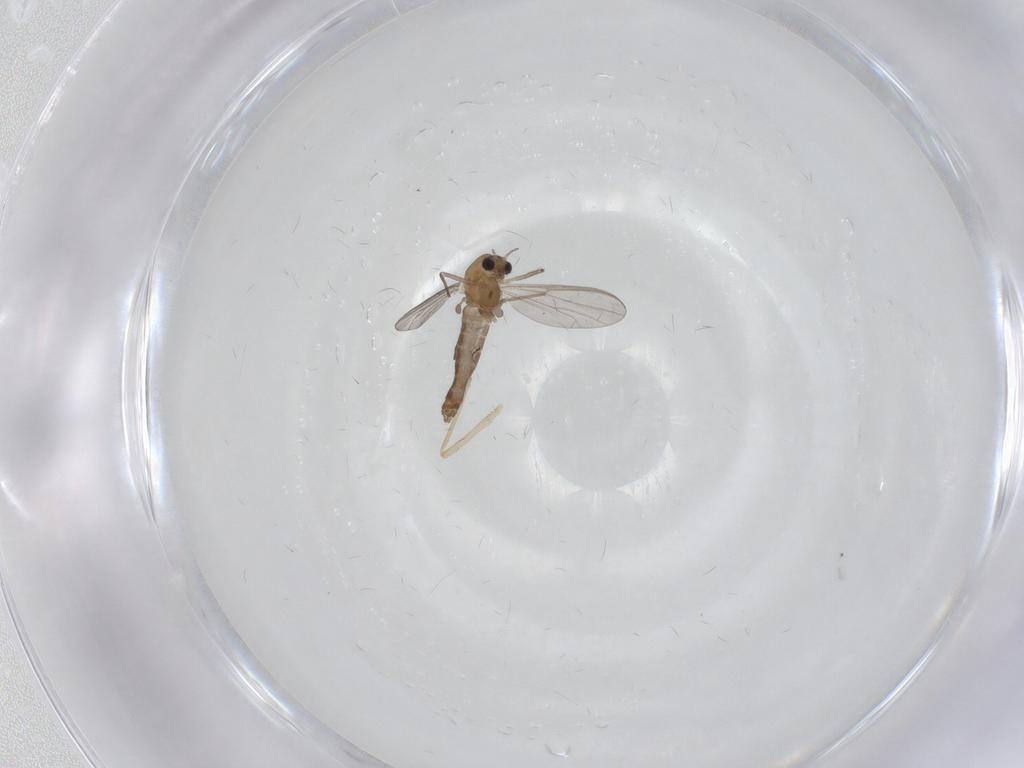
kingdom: Animalia
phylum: Arthropoda
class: Insecta
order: Diptera
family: Chironomidae
